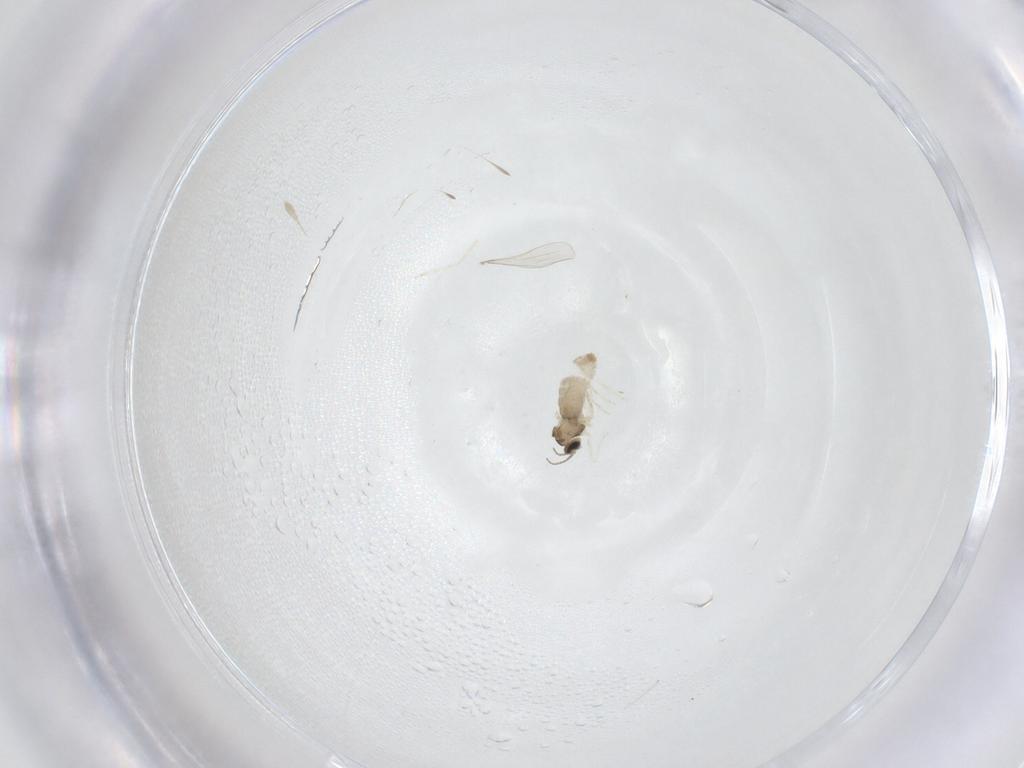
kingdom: Animalia
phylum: Arthropoda
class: Insecta
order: Diptera
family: Cecidomyiidae
